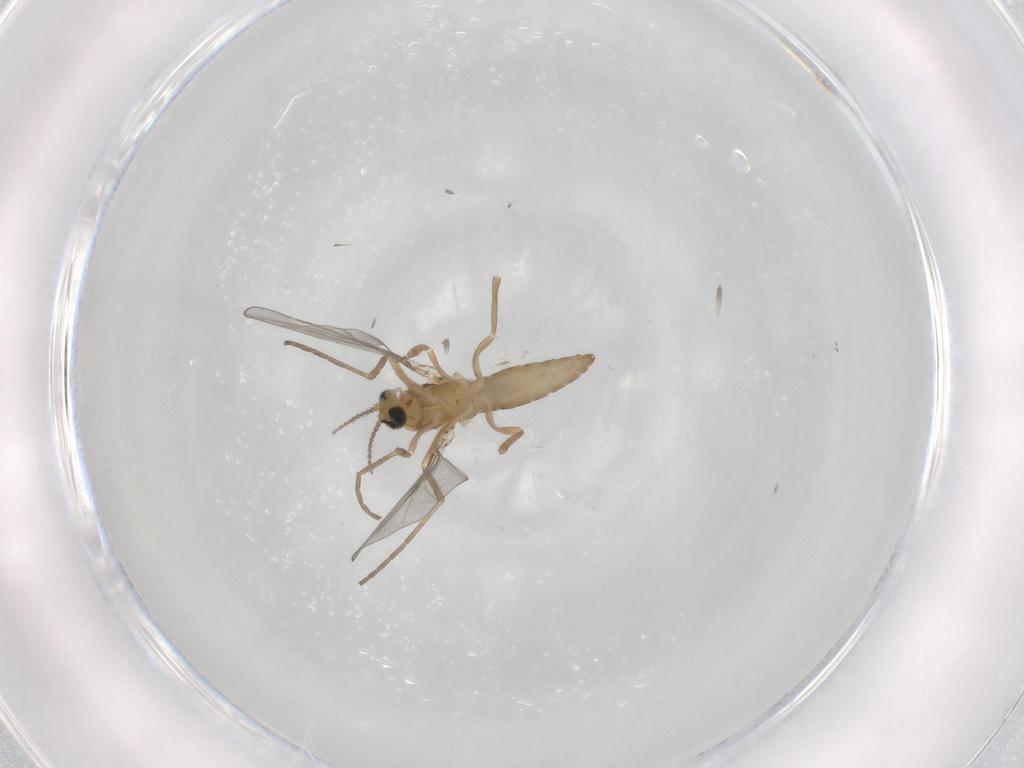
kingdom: Animalia
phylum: Arthropoda
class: Insecta
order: Diptera
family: Cecidomyiidae
